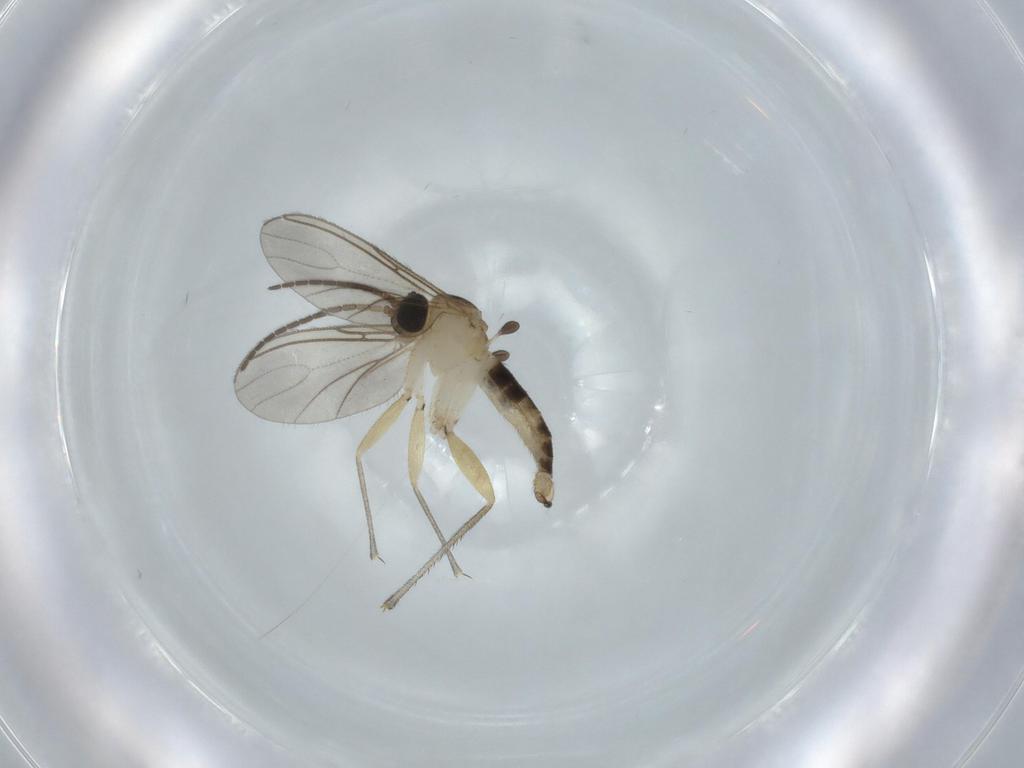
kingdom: Animalia
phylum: Arthropoda
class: Insecta
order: Diptera
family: Sciaridae
